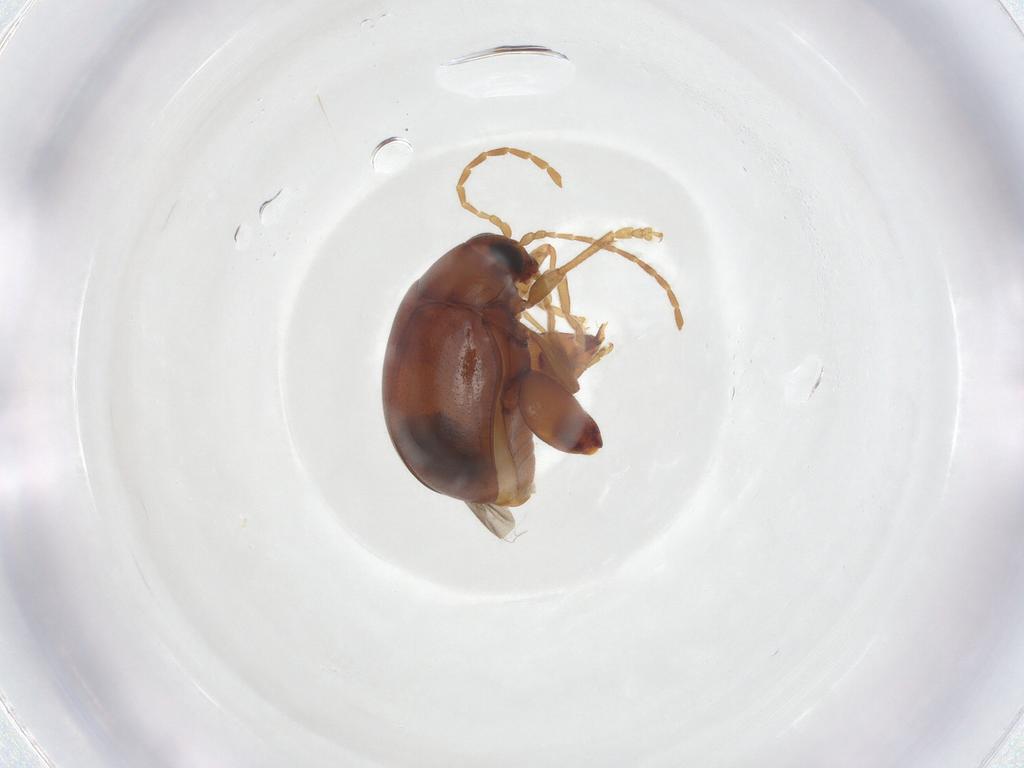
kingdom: Animalia
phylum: Arthropoda
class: Insecta
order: Coleoptera
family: Chrysomelidae
